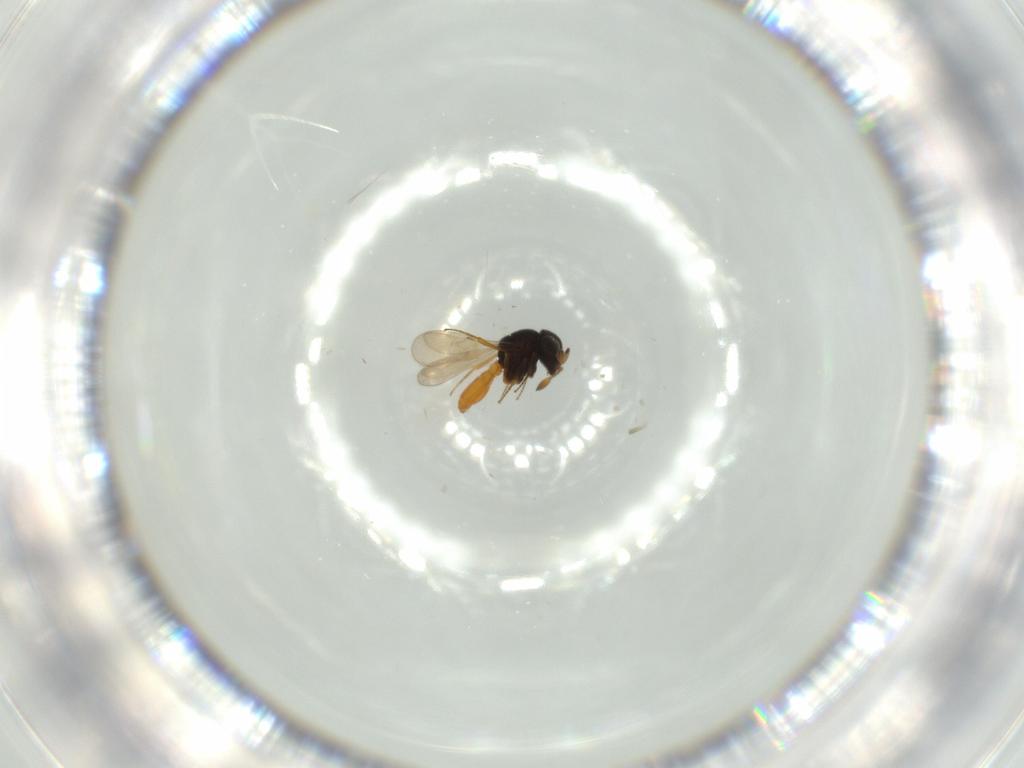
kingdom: Animalia
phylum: Arthropoda
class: Insecta
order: Hymenoptera
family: Scelionidae
